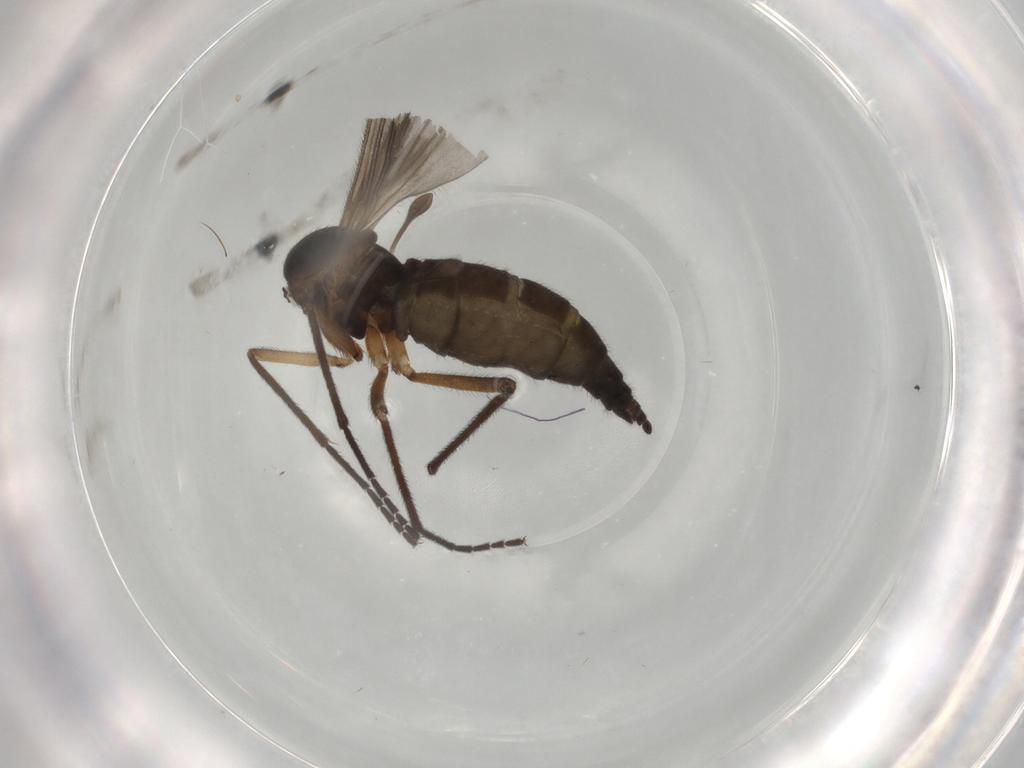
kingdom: Animalia
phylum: Arthropoda
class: Insecta
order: Diptera
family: Sciaridae
